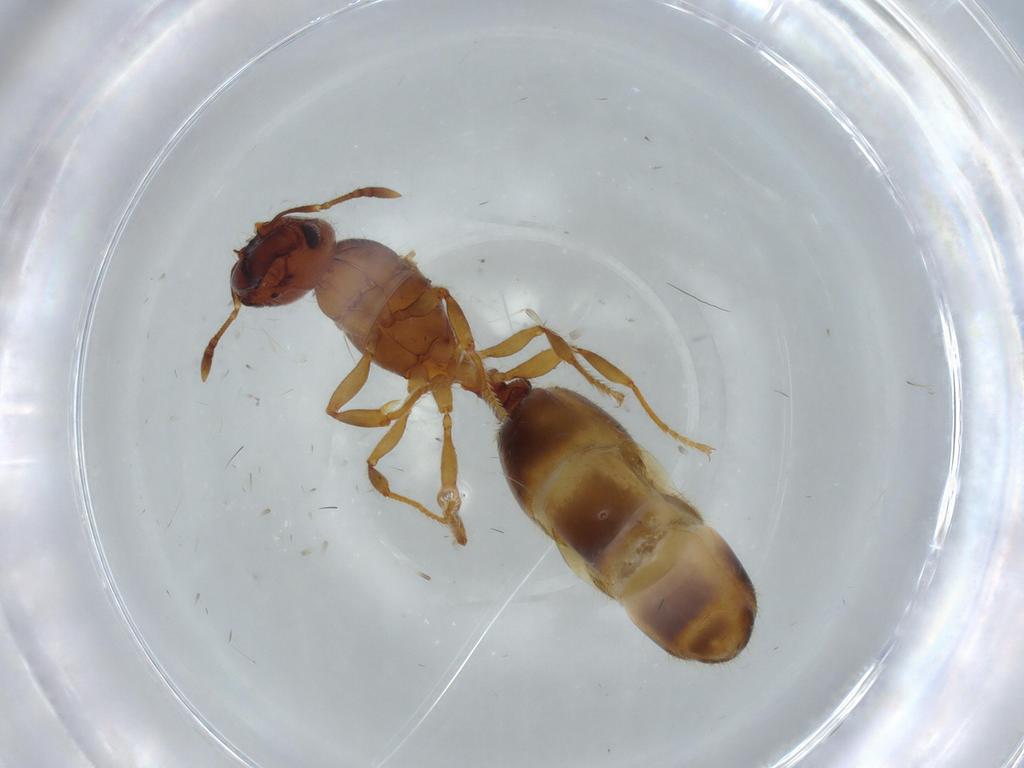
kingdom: Animalia
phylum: Arthropoda
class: Insecta
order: Hymenoptera
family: Formicidae
